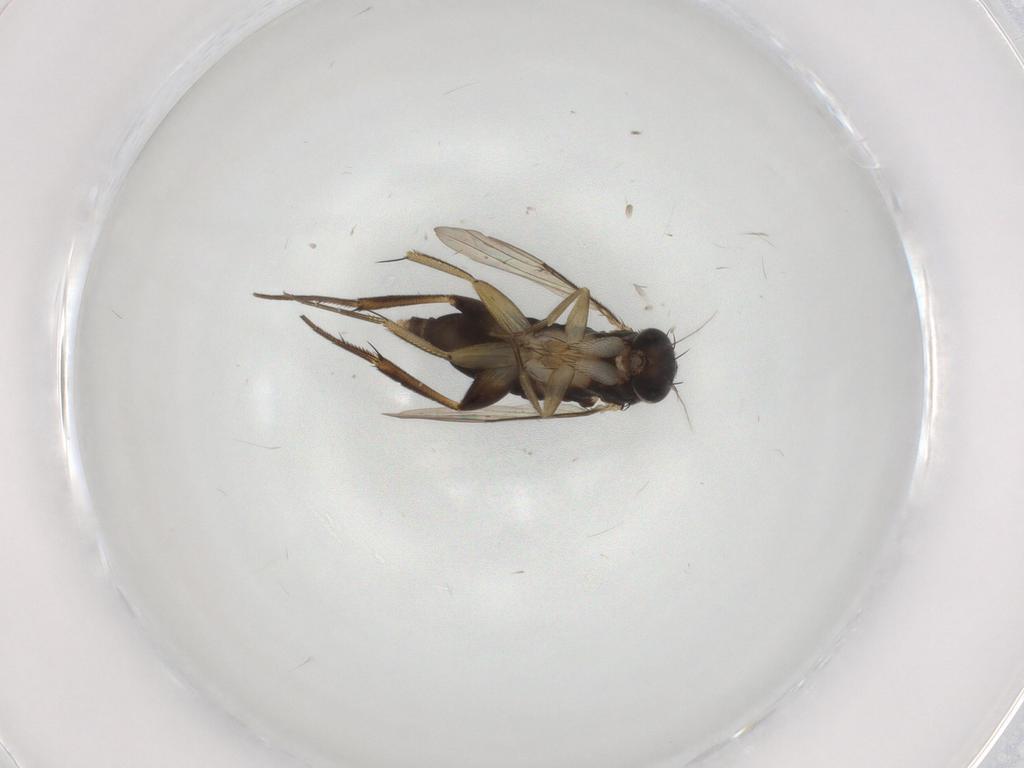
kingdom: Animalia
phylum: Arthropoda
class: Insecta
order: Diptera
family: Phoridae
